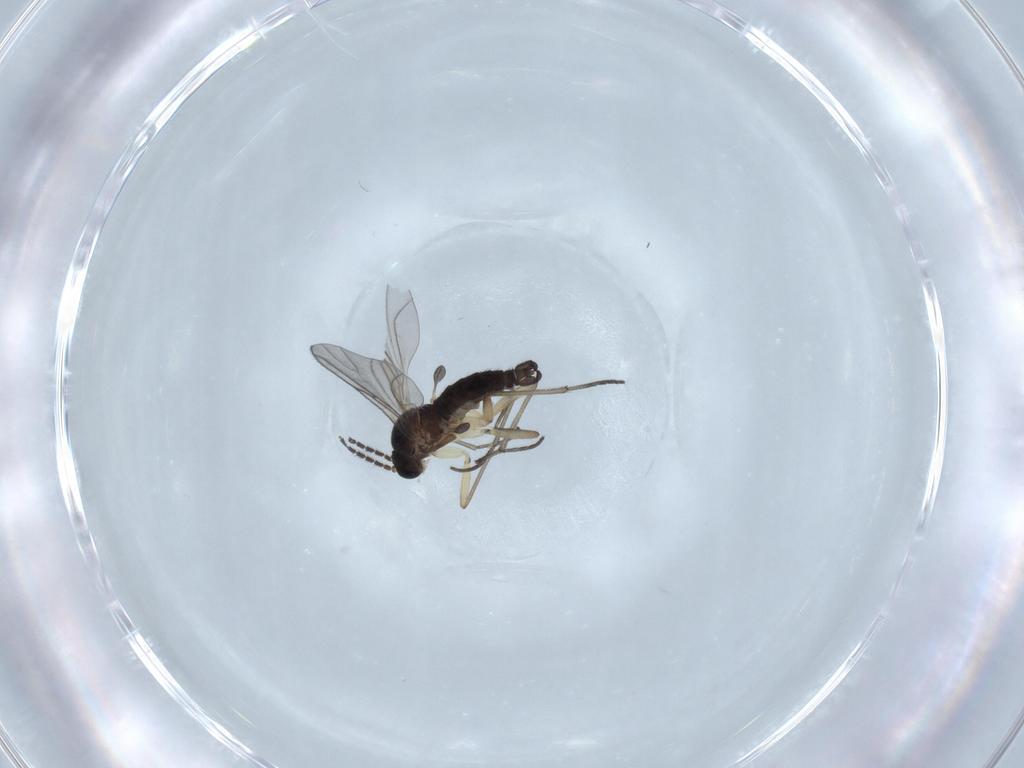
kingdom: Animalia
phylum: Arthropoda
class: Insecta
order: Diptera
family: Sciaridae
